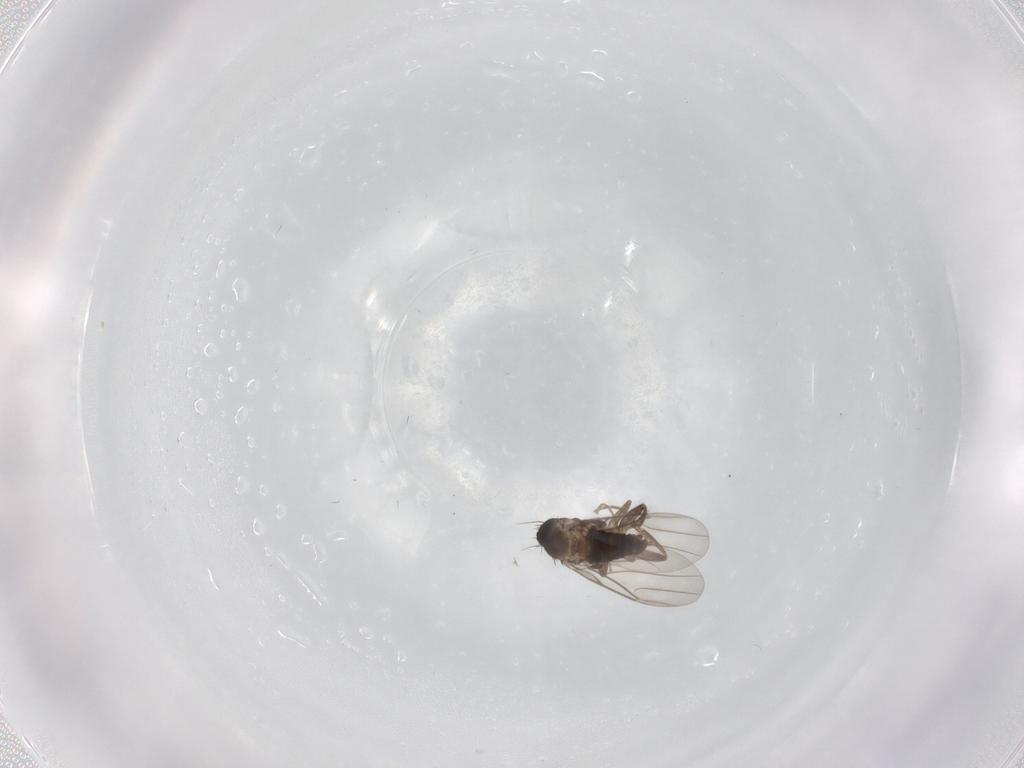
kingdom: Animalia
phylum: Arthropoda
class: Insecta
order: Diptera
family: Phoridae
